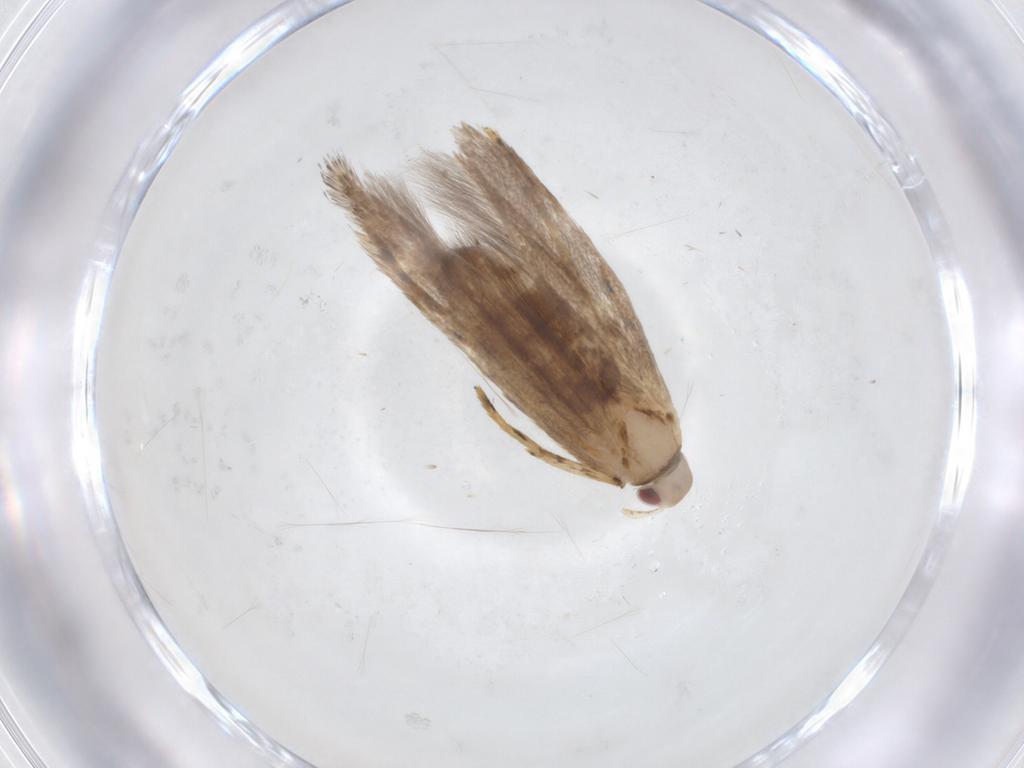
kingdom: Animalia
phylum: Arthropoda
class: Insecta
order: Lepidoptera
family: Cosmopterigidae
